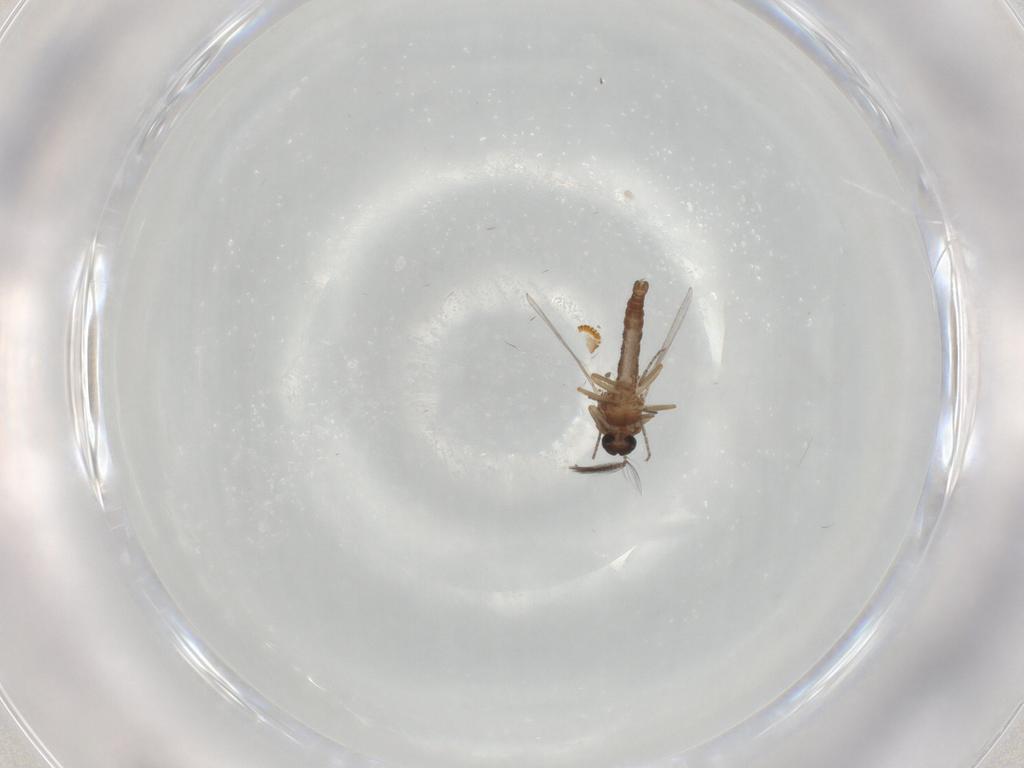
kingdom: Animalia
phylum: Arthropoda
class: Insecta
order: Diptera
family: Ceratopogonidae
